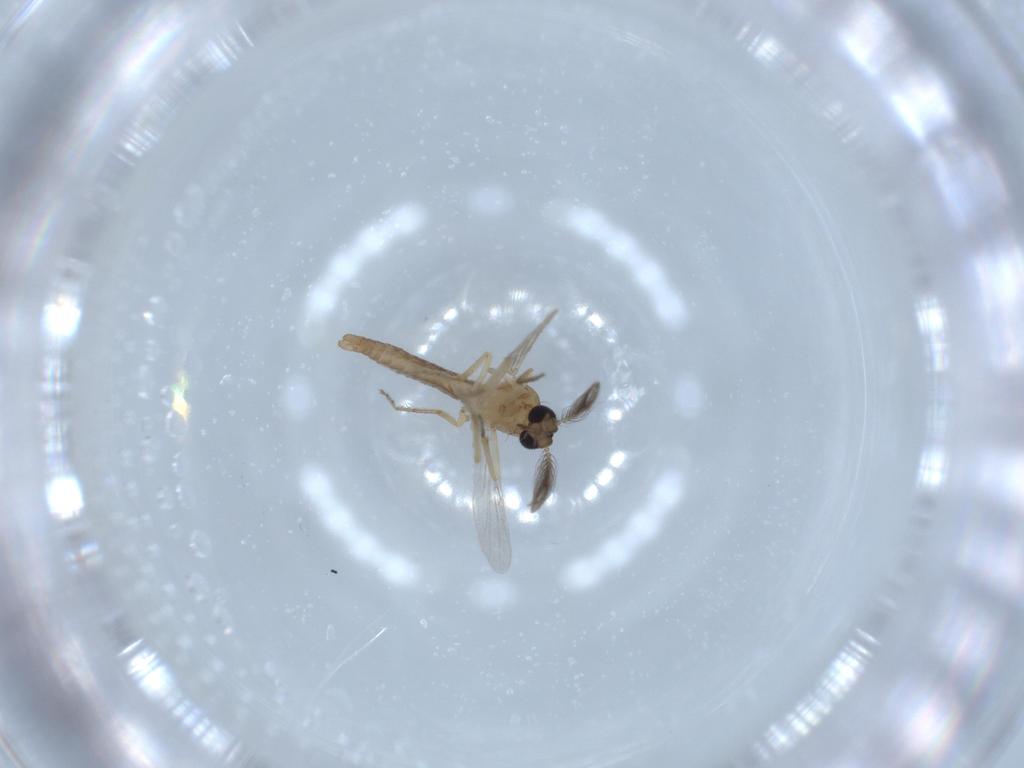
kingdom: Animalia
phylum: Arthropoda
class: Insecta
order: Diptera
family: Ceratopogonidae
